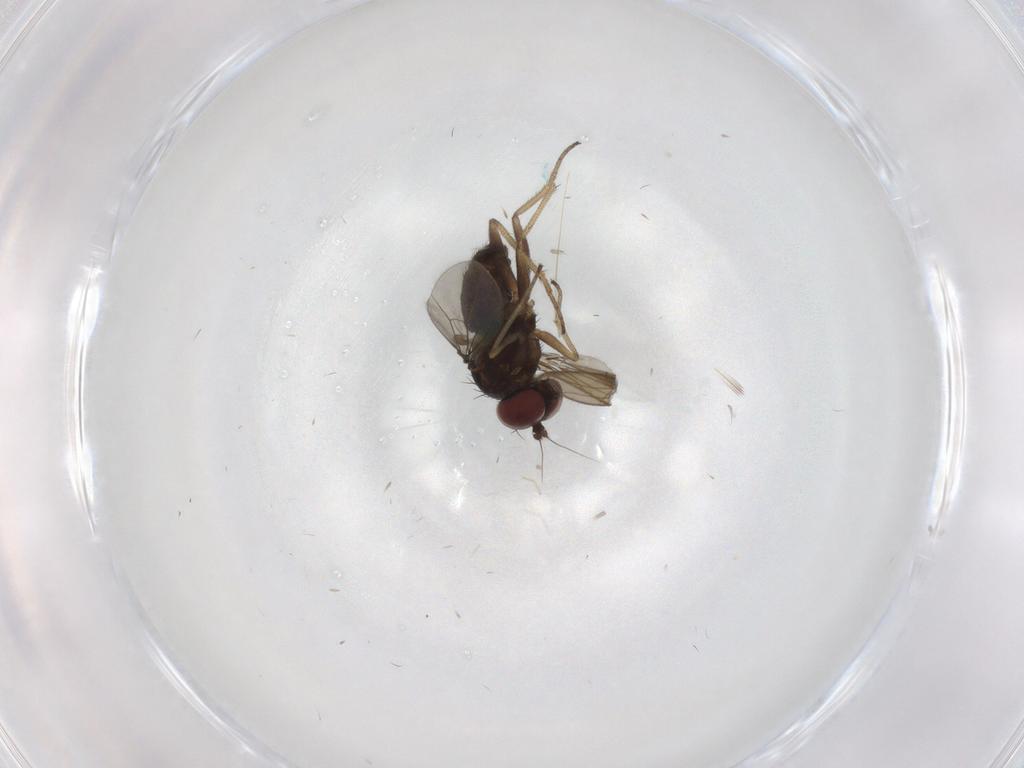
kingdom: Animalia
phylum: Arthropoda
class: Insecta
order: Diptera
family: Dolichopodidae
